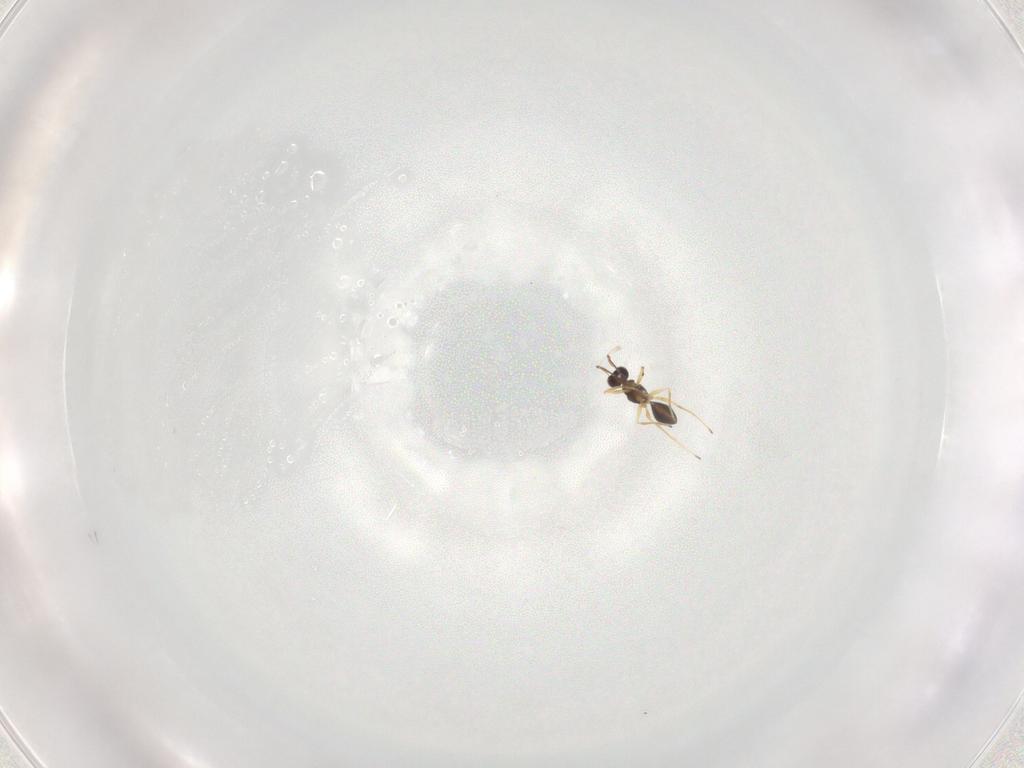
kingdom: Animalia
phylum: Arthropoda
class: Insecta
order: Hymenoptera
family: Mymaridae
